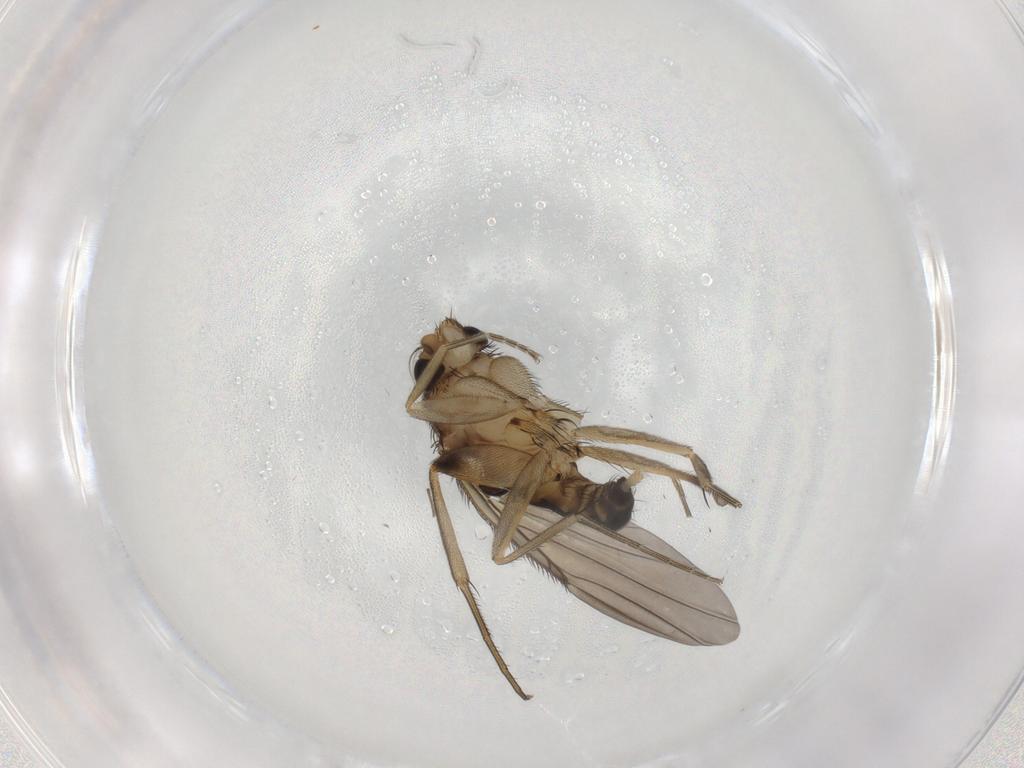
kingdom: Animalia
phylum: Arthropoda
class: Insecta
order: Diptera
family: Phoridae
